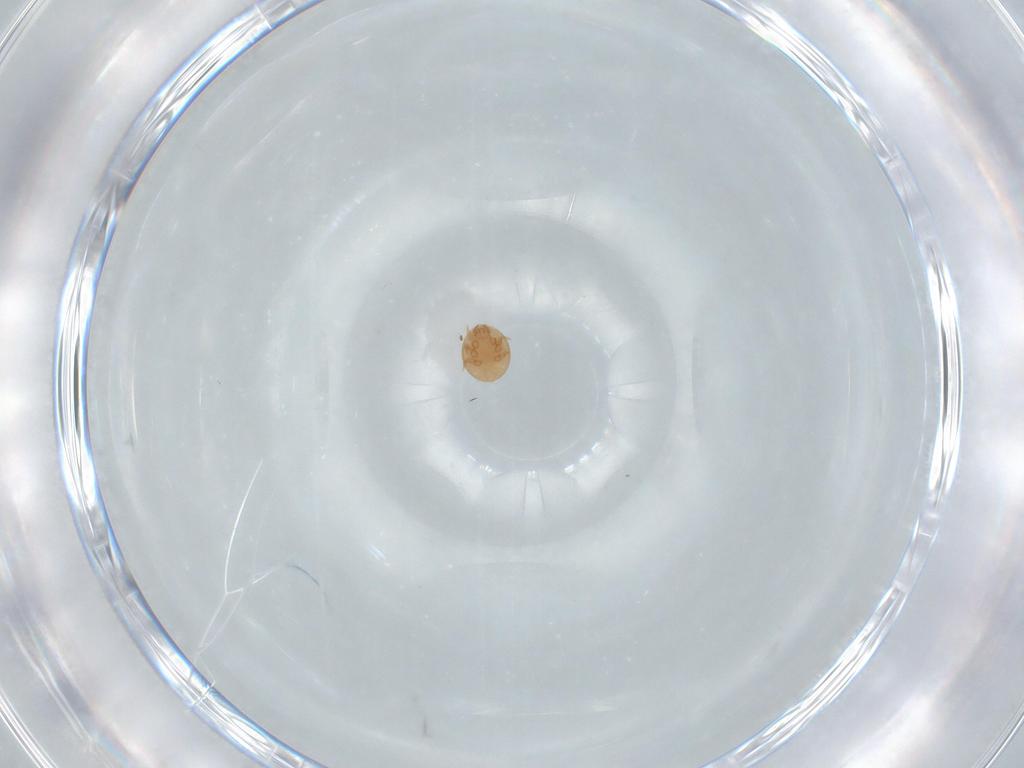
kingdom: Animalia
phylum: Arthropoda
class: Arachnida
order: Mesostigmata
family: Trematuridae
